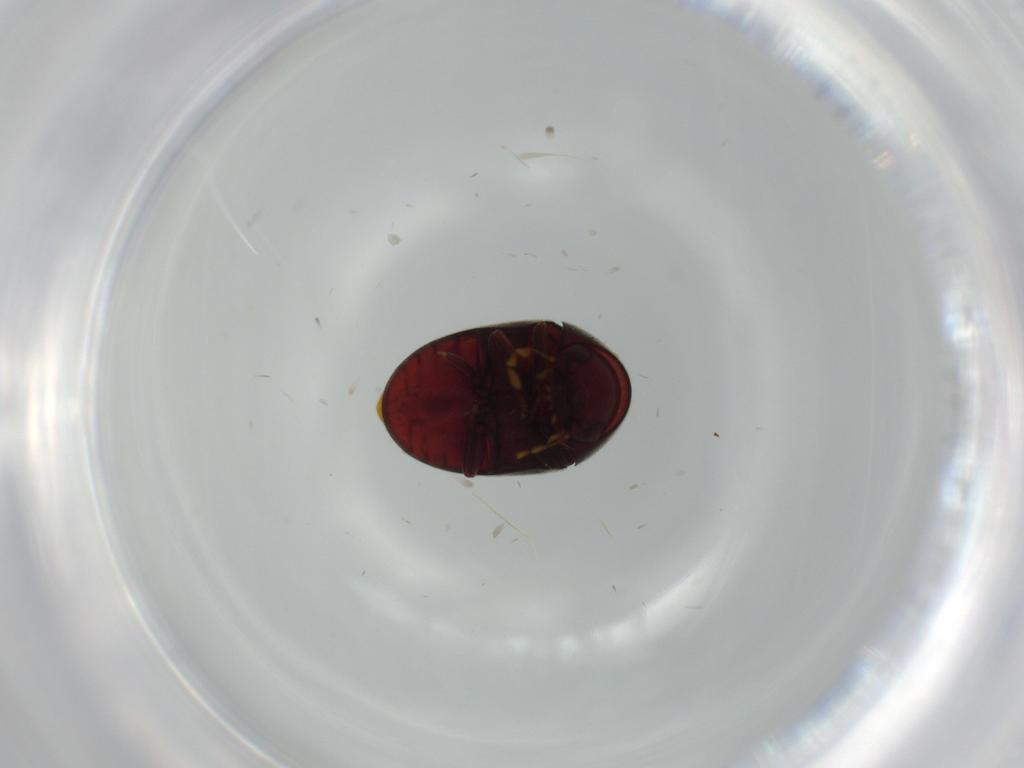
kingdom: Animalia
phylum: Arthropoda
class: Insecta
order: Coleoptera
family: Ptinidae
